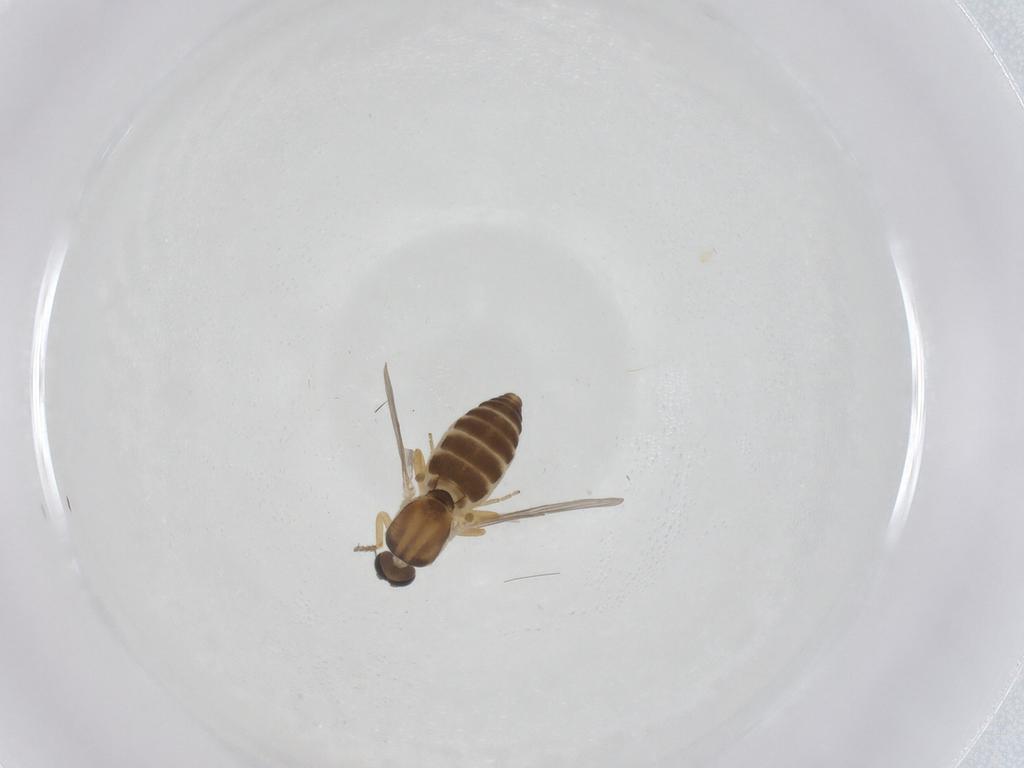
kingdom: Animalia
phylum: Arthropoda
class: Insecta
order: Diptera
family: Ceratopogonidae
